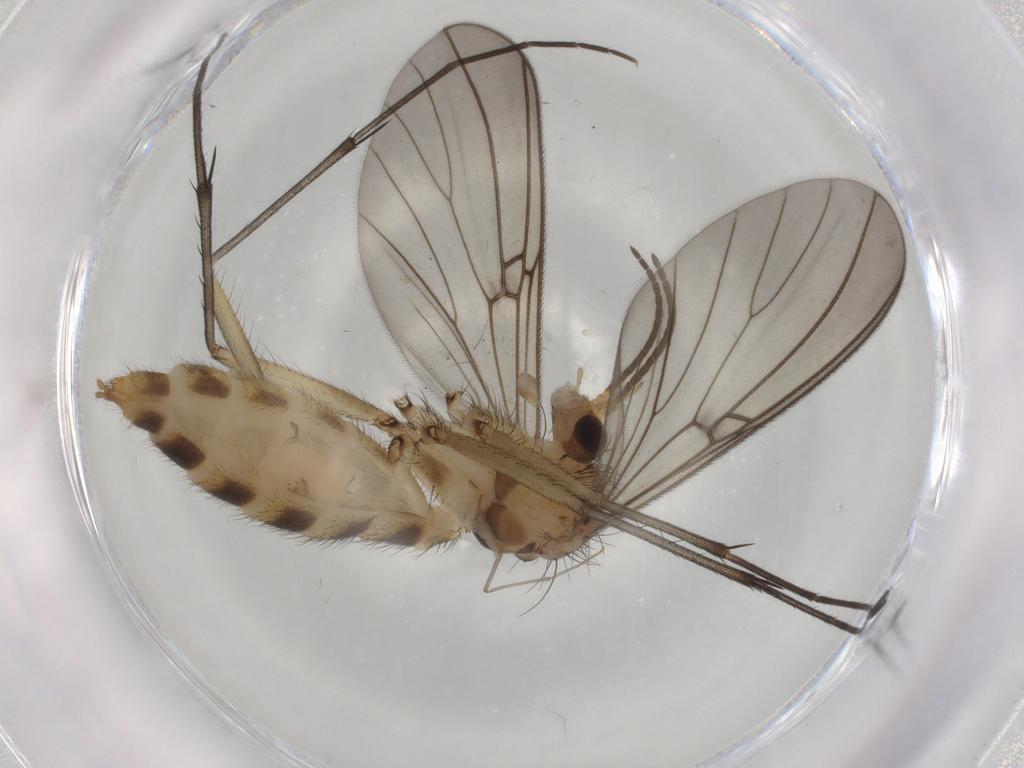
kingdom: Animalia
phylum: Arthropoda
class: Insecta
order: Diptera
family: Mycetophilidae
